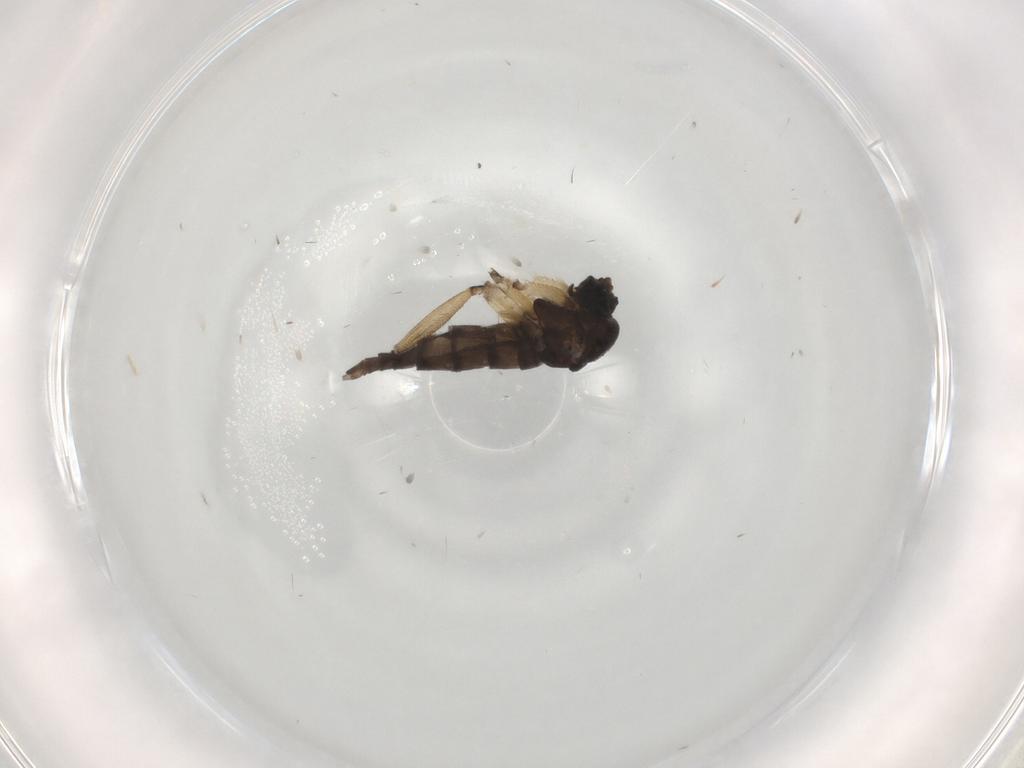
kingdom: Animalia
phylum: Arthropoda
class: Insecta
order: Diptera
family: Sciaridae
